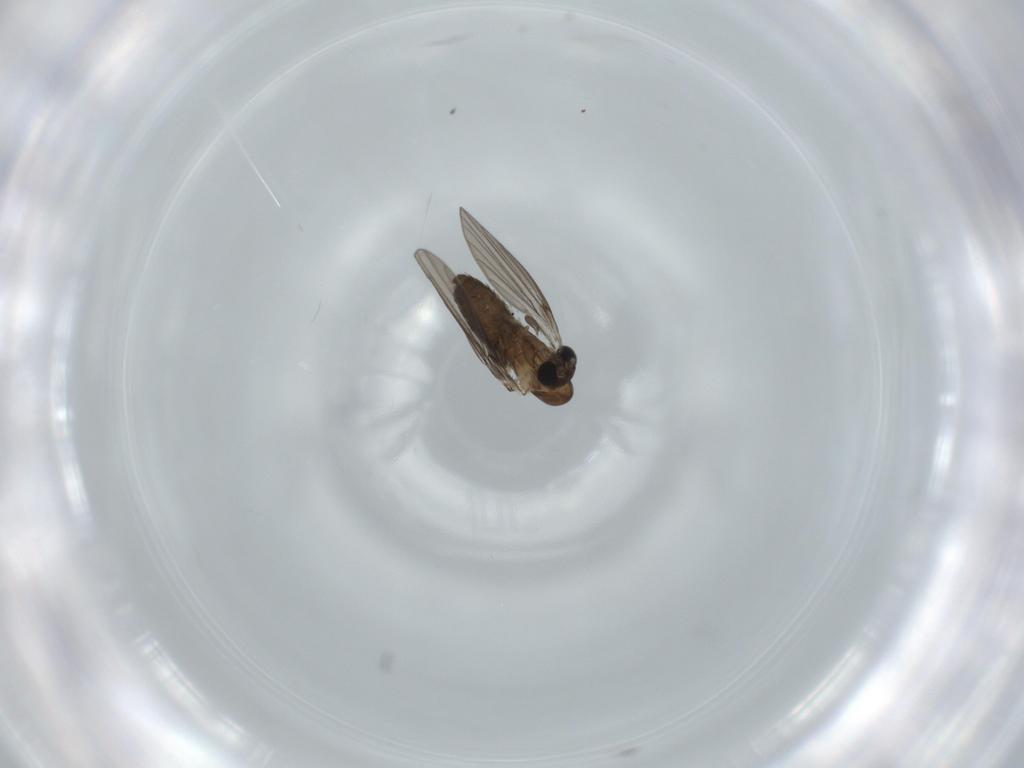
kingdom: Animalia
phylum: Arthropoda
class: Insecta
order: Diptera
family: Psychodidae
